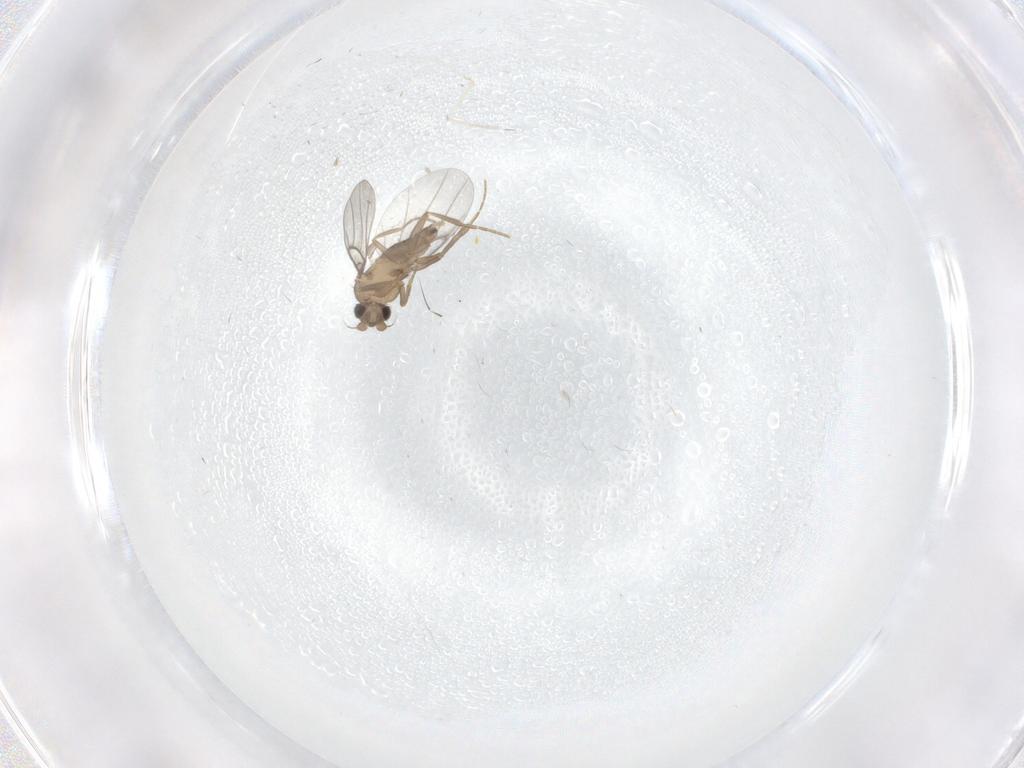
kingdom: Animalia
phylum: Arthropoda
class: Insecta
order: Diptera
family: Cecidomyiidae
